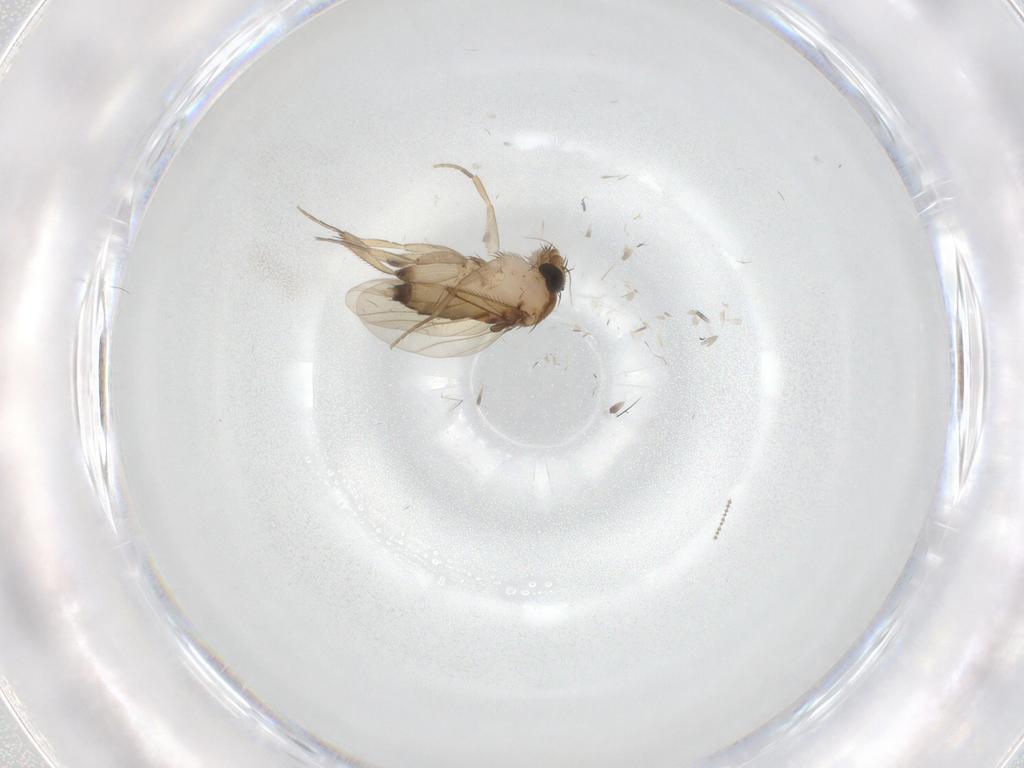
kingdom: Animalia
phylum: Arthropoda
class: Insecta
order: Diptera
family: Phoridae
